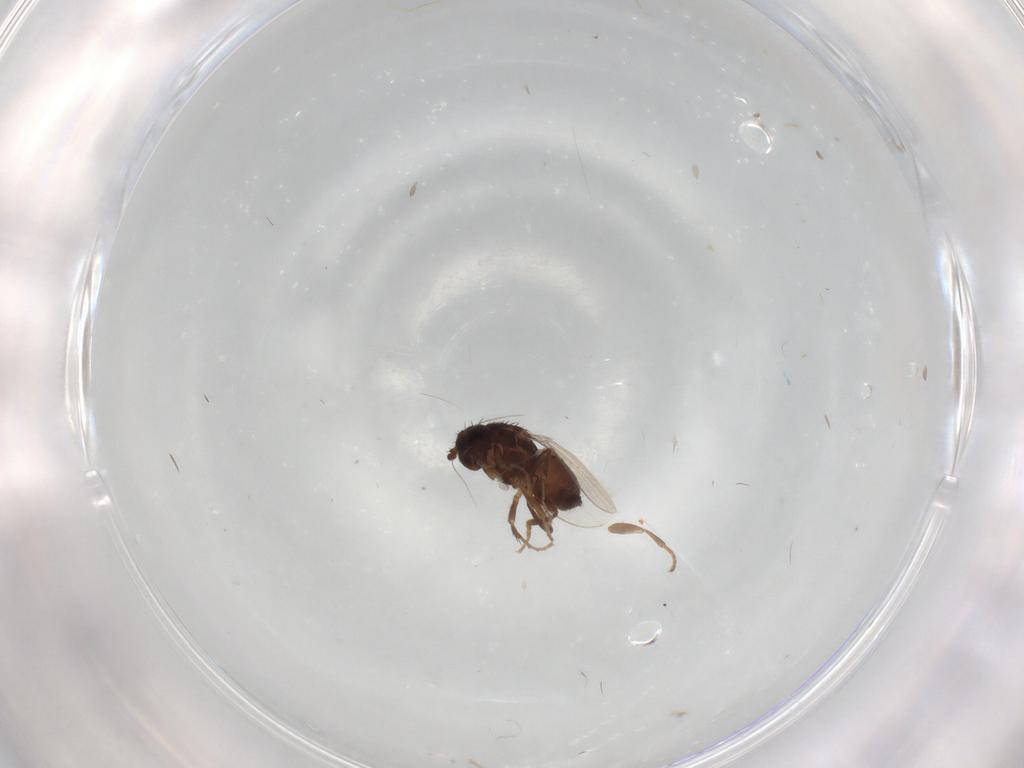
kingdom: Animalia
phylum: Arthropoda
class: Insecta
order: Diptera
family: Sphaeroceridae
